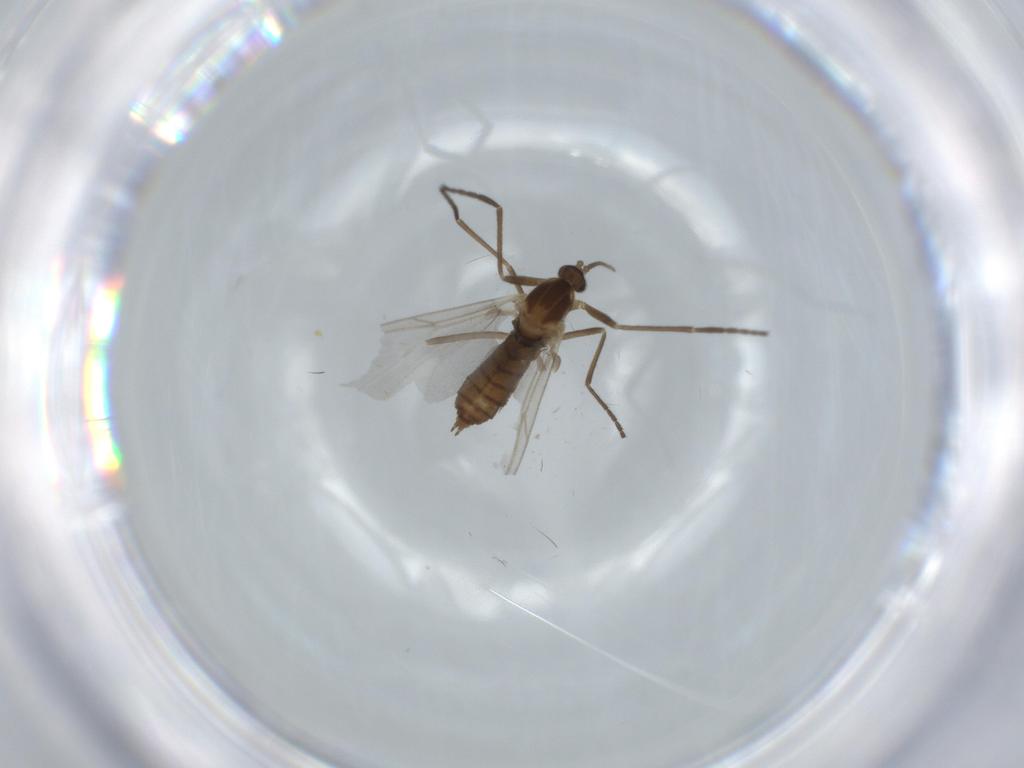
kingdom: Animalia
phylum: Arthropoda
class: Insecta
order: Diptera
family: Cecidomyiidae
